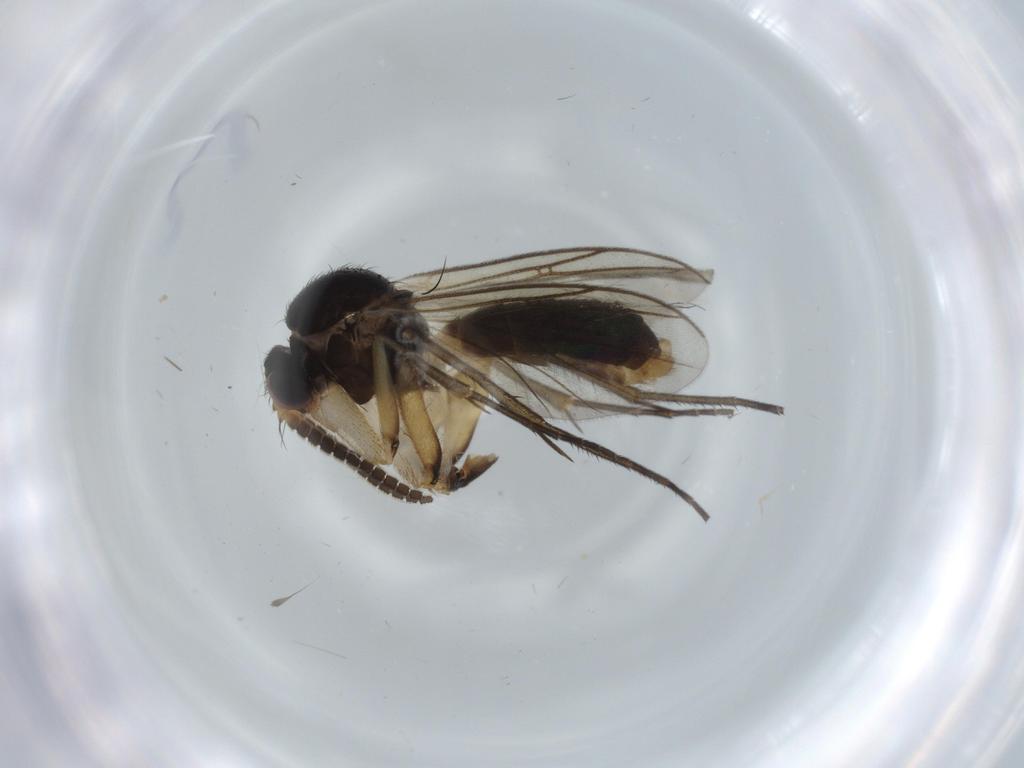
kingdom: Animalia
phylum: Arthropoda
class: Insecta
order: Diptera
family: Mycetophilidae
